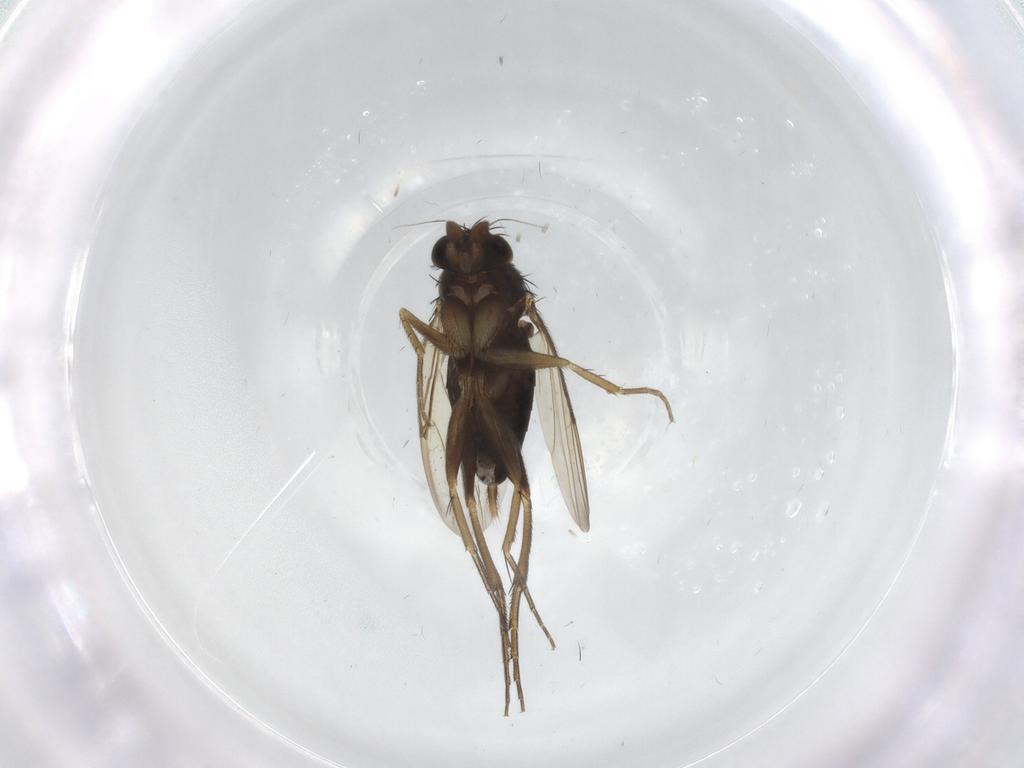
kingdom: Animalia
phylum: Arthropoda
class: Insecta
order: Diptera
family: Phoridae
